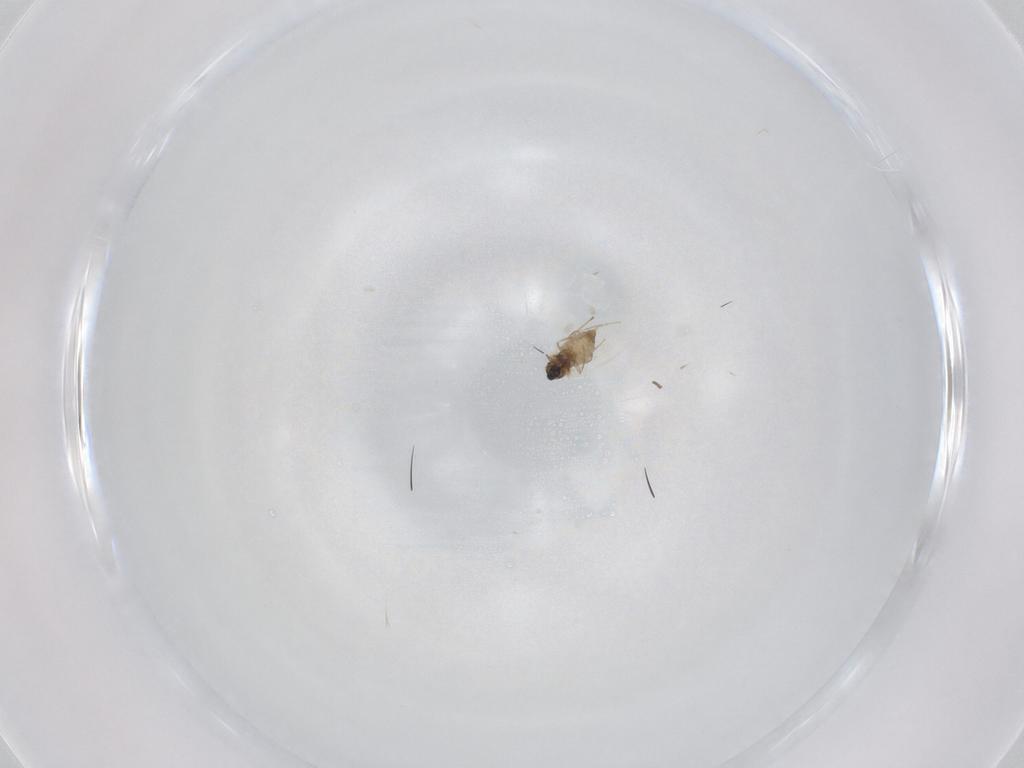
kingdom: Animalia
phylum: Arthropoda
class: Insecta
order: Diptera
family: Cecidomyiidae
